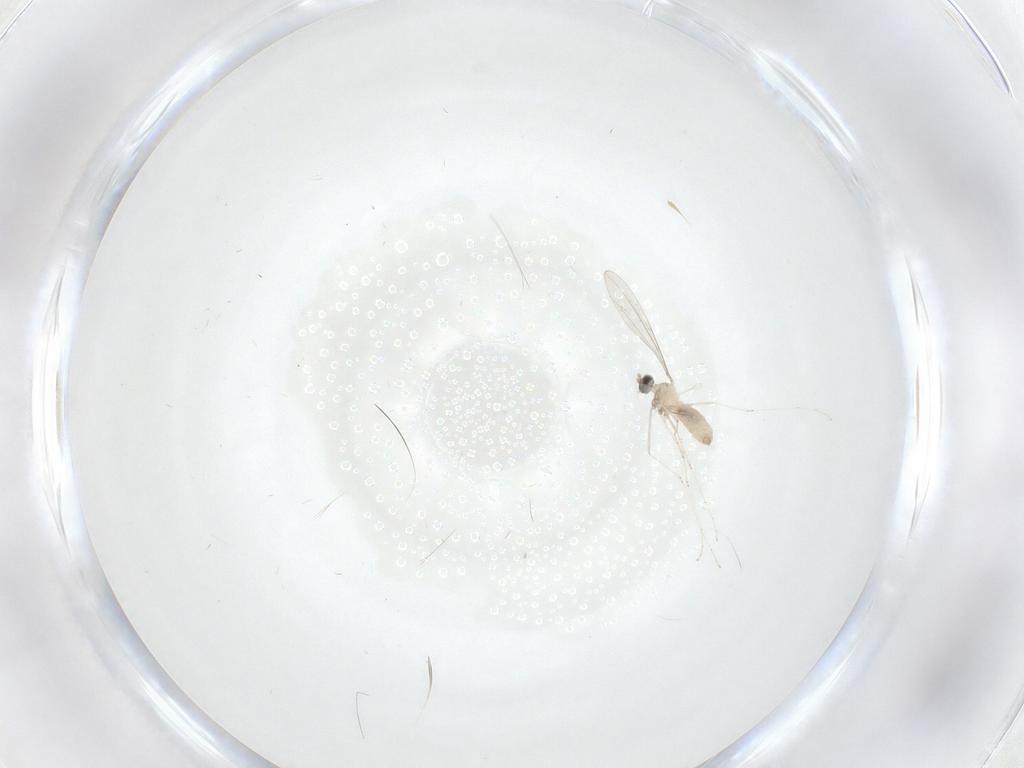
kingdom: Animalia
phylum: Arthropoda
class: Insecta
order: Diptera
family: Cecidomyiidae
